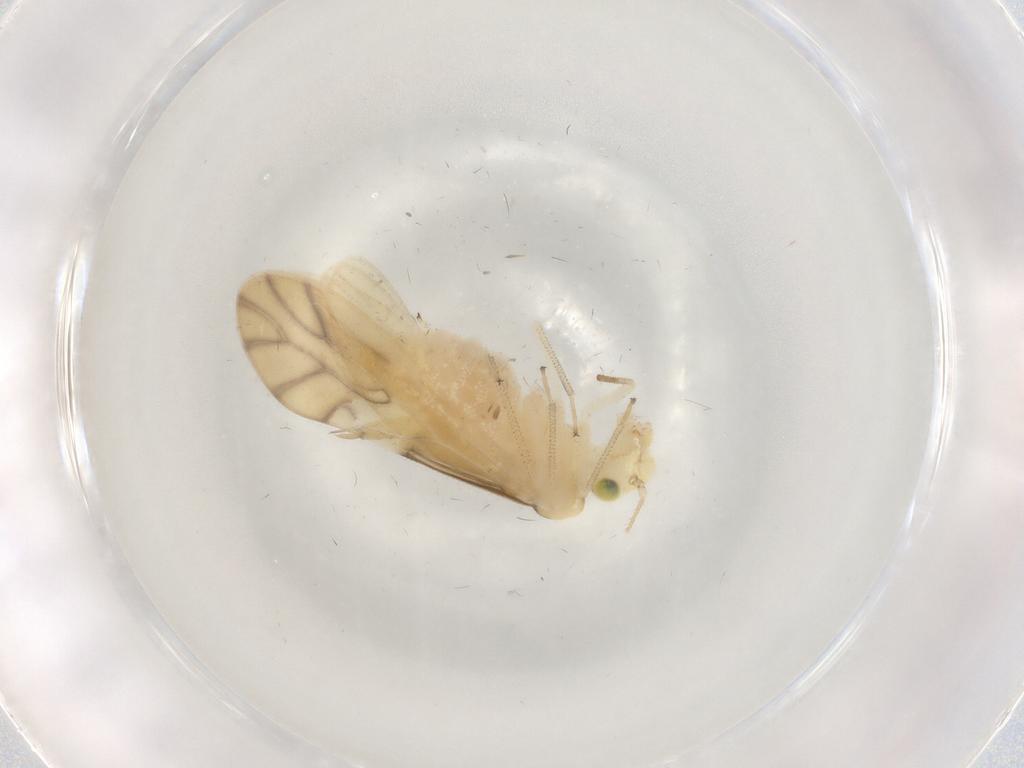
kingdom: Animalia
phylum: Arthropoda
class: Insecta
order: Psocodea
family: Caeciliusidae
